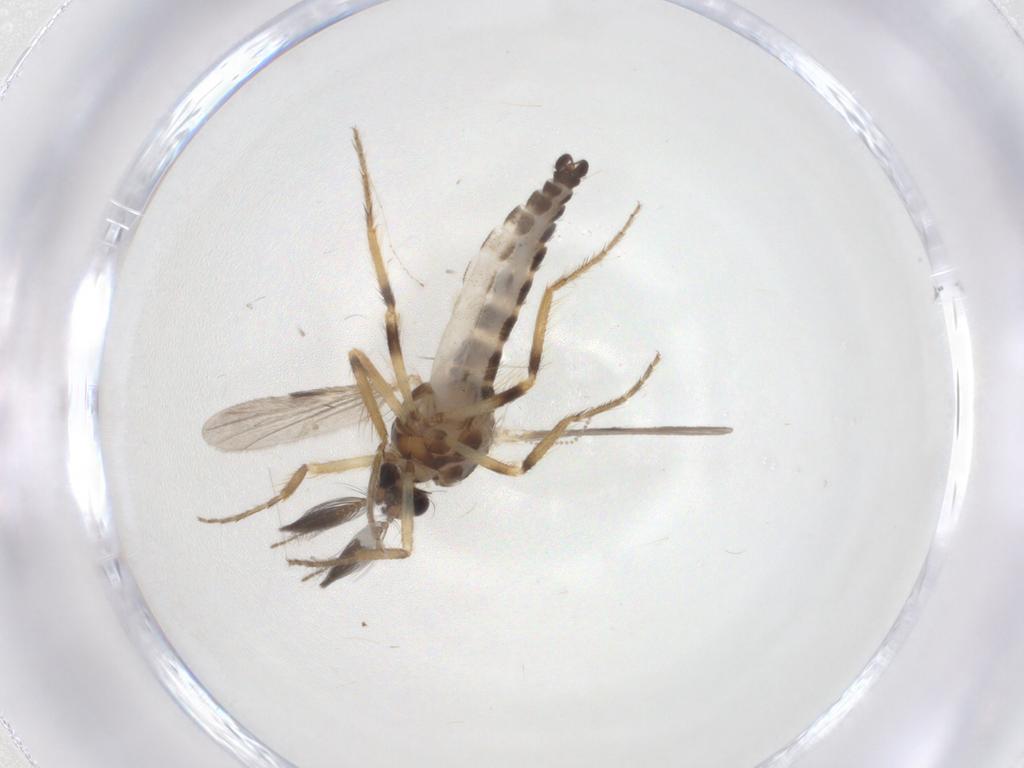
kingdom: Animalia
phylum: Arthropoda
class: Insecta
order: Diptera
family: Ceratopogonidae
